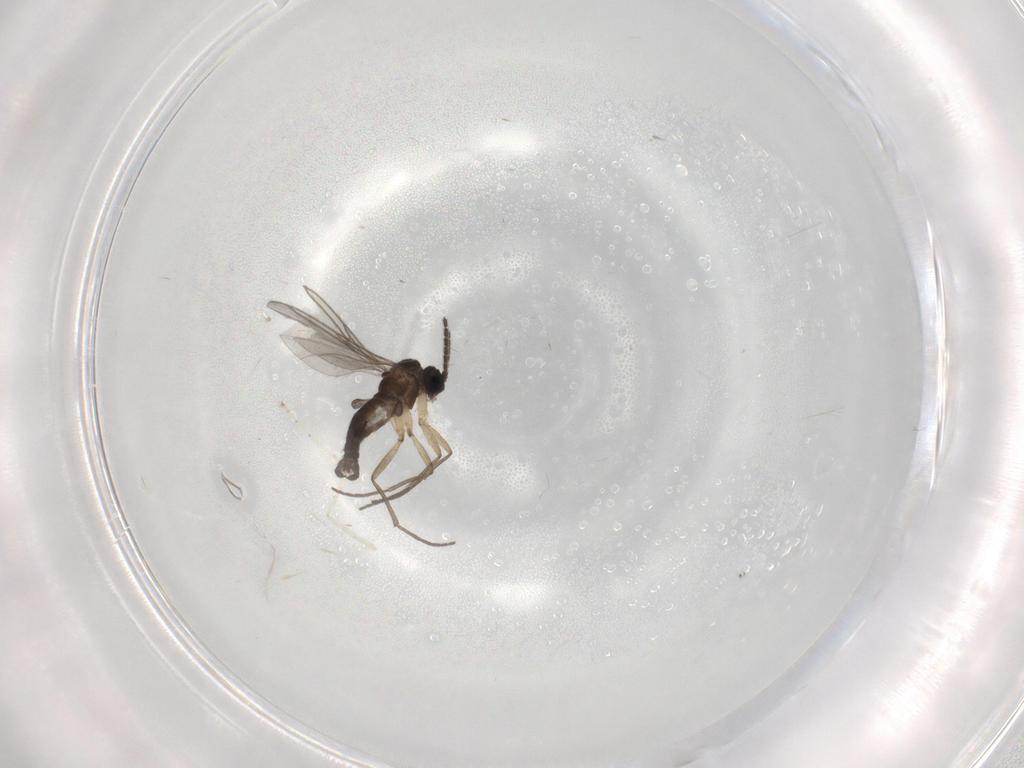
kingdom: Animalia
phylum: Arthropoda
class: Insecta
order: Diptera
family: Sciaridae
